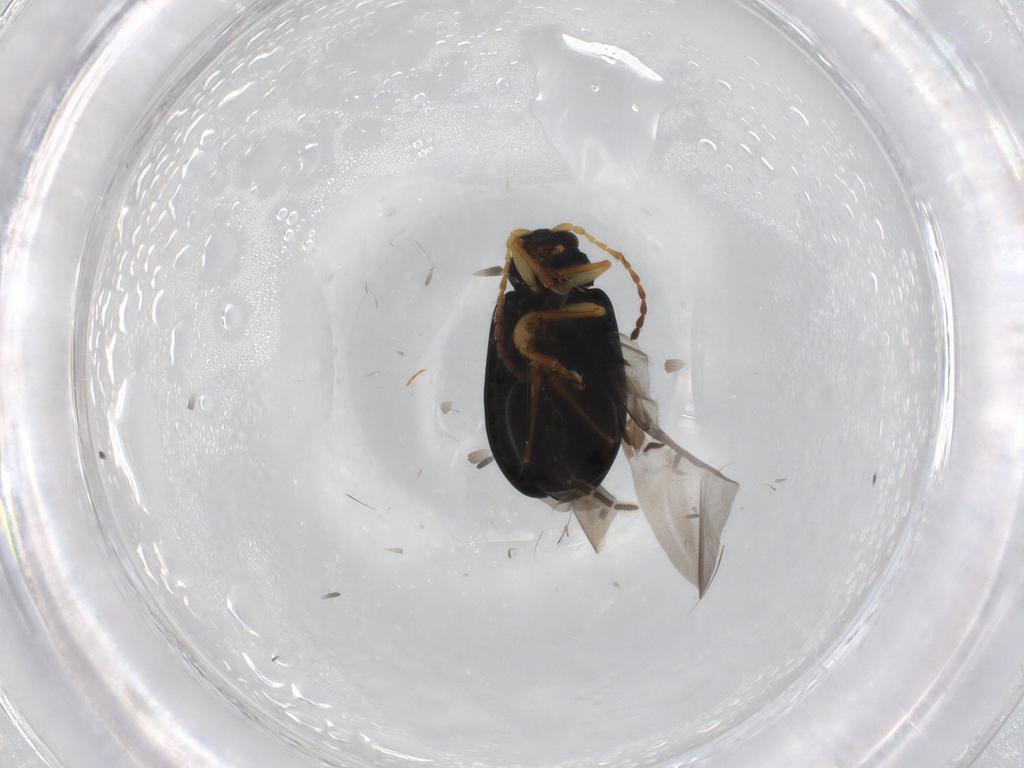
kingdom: Animalia
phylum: Arthropoda
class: Insecta
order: Coleoptera
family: Chrysomelidae
